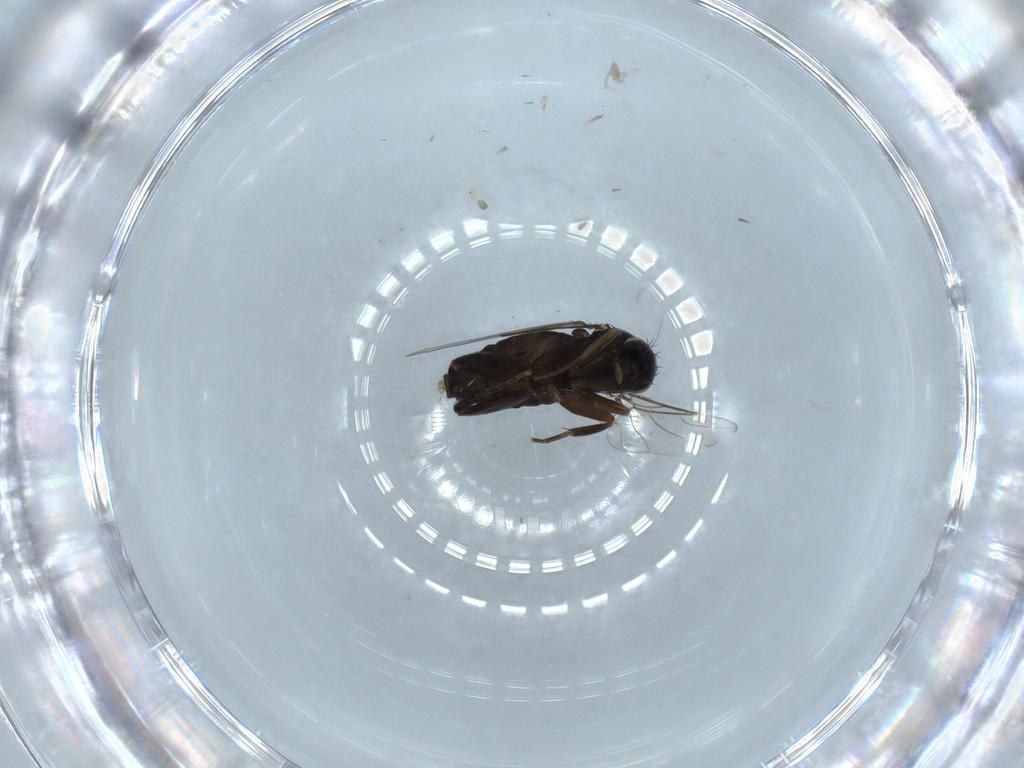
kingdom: Animalia
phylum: Arthropoda
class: Insecta
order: Diptera
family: Phoridae
